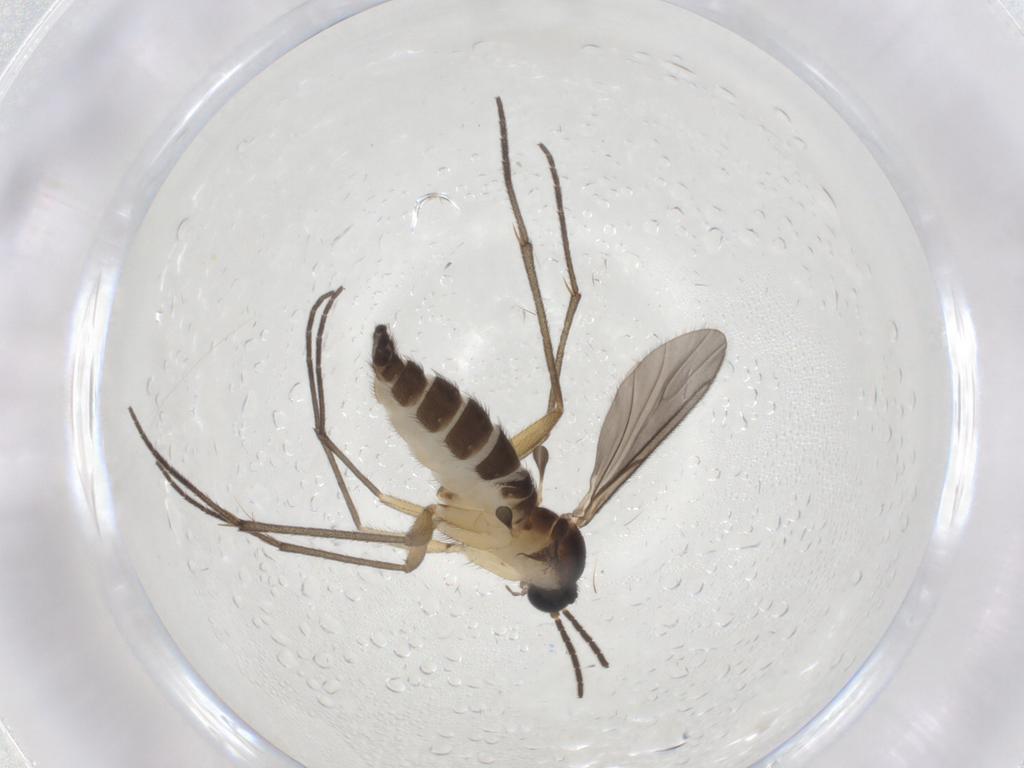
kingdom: Animalia
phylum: Arthropoda
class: Insecta
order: Diptera
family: Sciaridae
